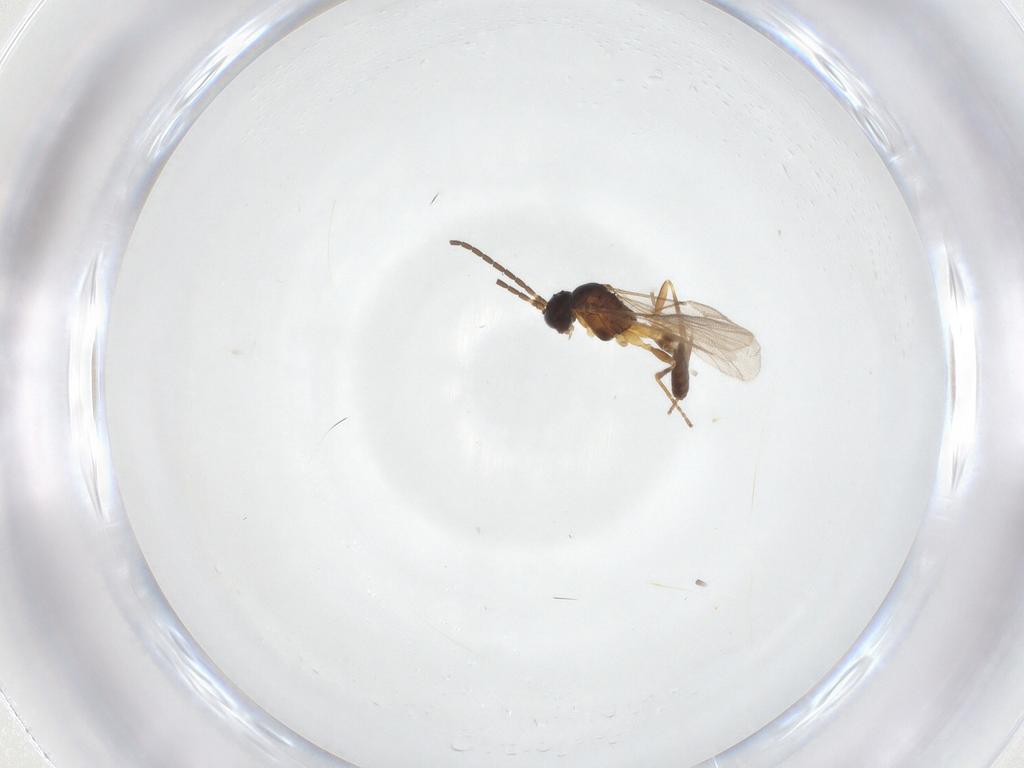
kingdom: Animalia
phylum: Arthropoda
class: Insecta
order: Hymenoptera
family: Braconidae
